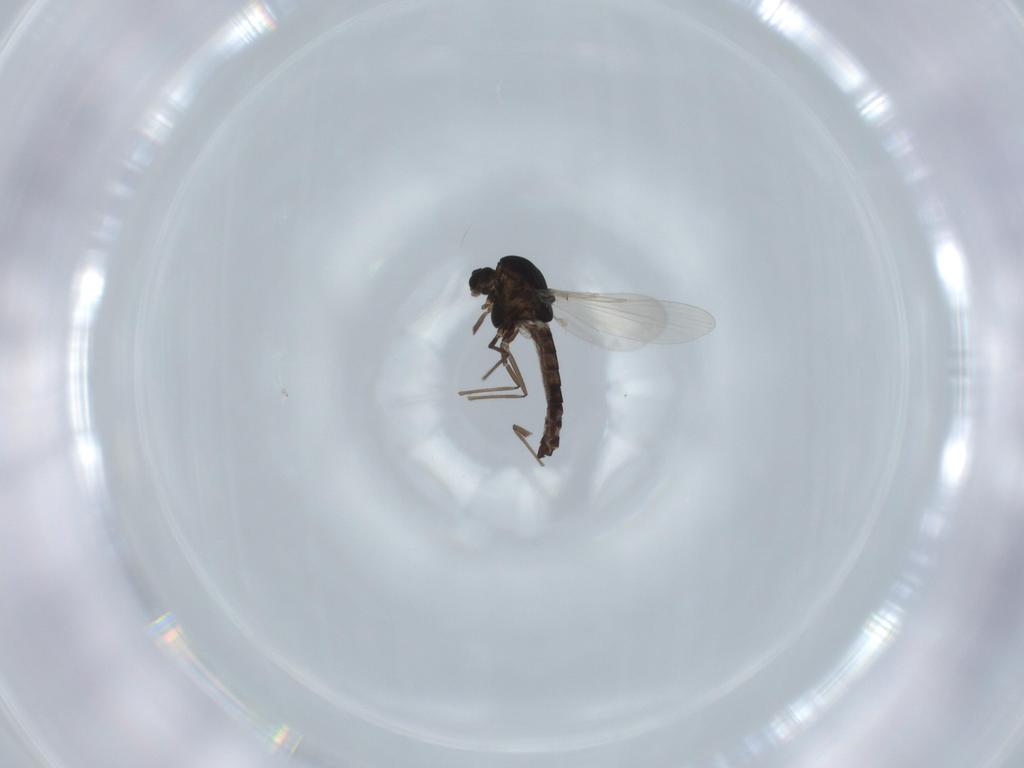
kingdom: Animalia
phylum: Arthropoda
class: Insecta
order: Diptera
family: Chironomidae
